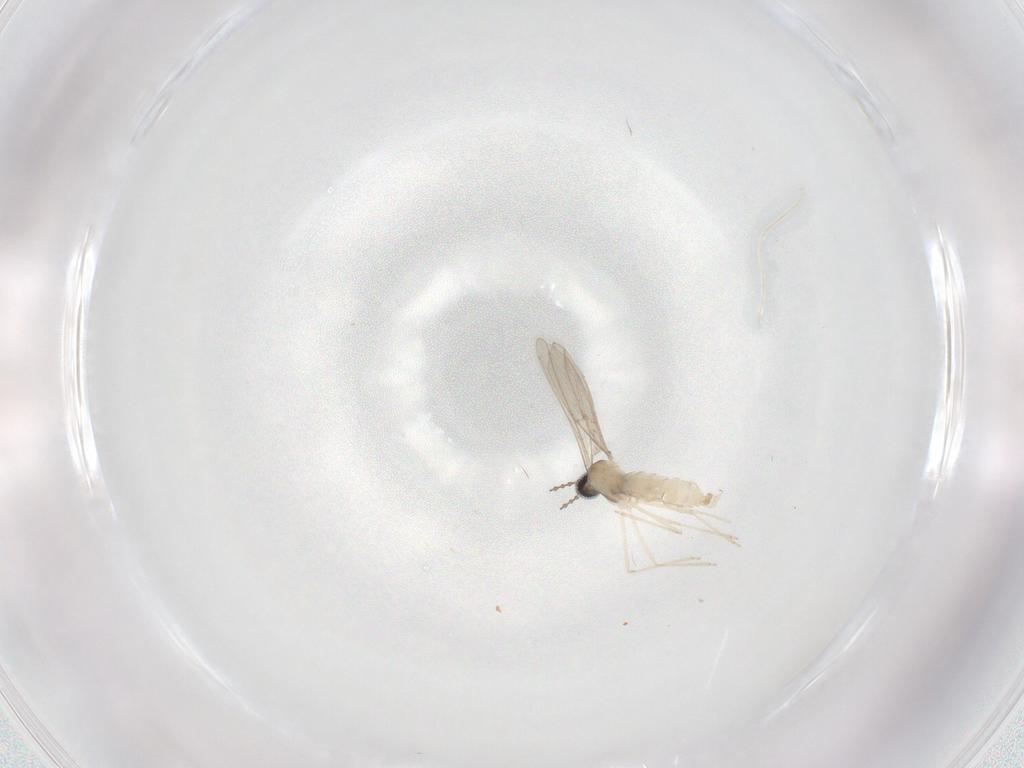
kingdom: Animalia
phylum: Arthropoda
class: Insecta
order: Diptera
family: Cecidomyiidae
